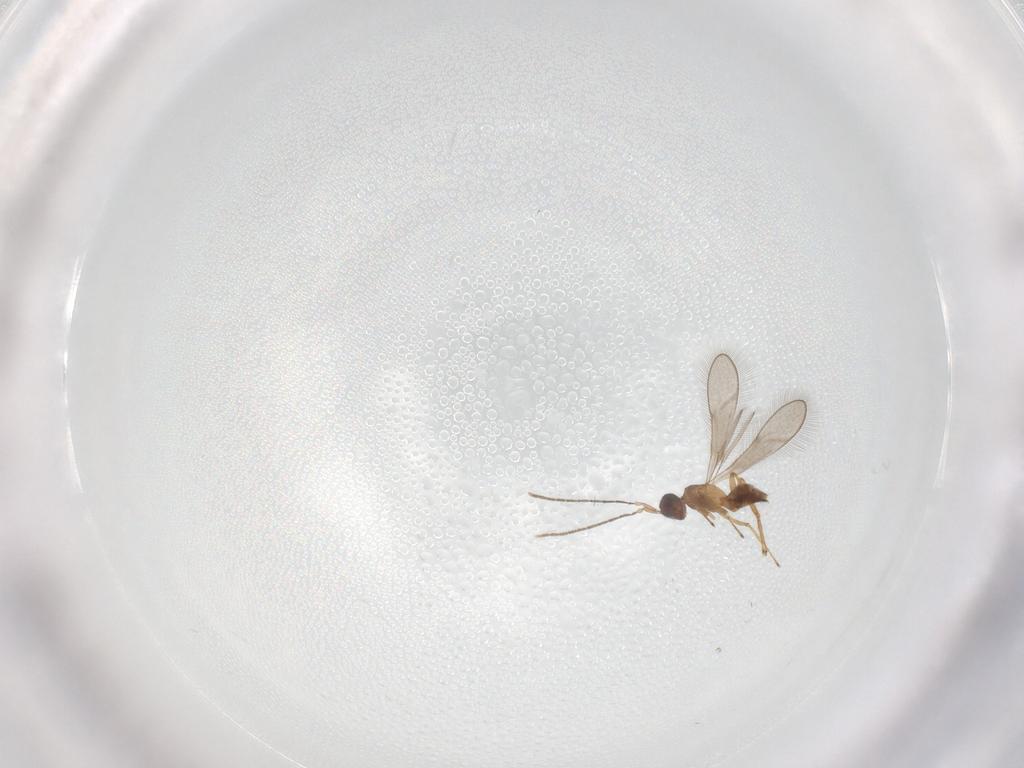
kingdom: Animalia
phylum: Arthropoda
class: Insecta
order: Hymenoptera
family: Mymaridae
